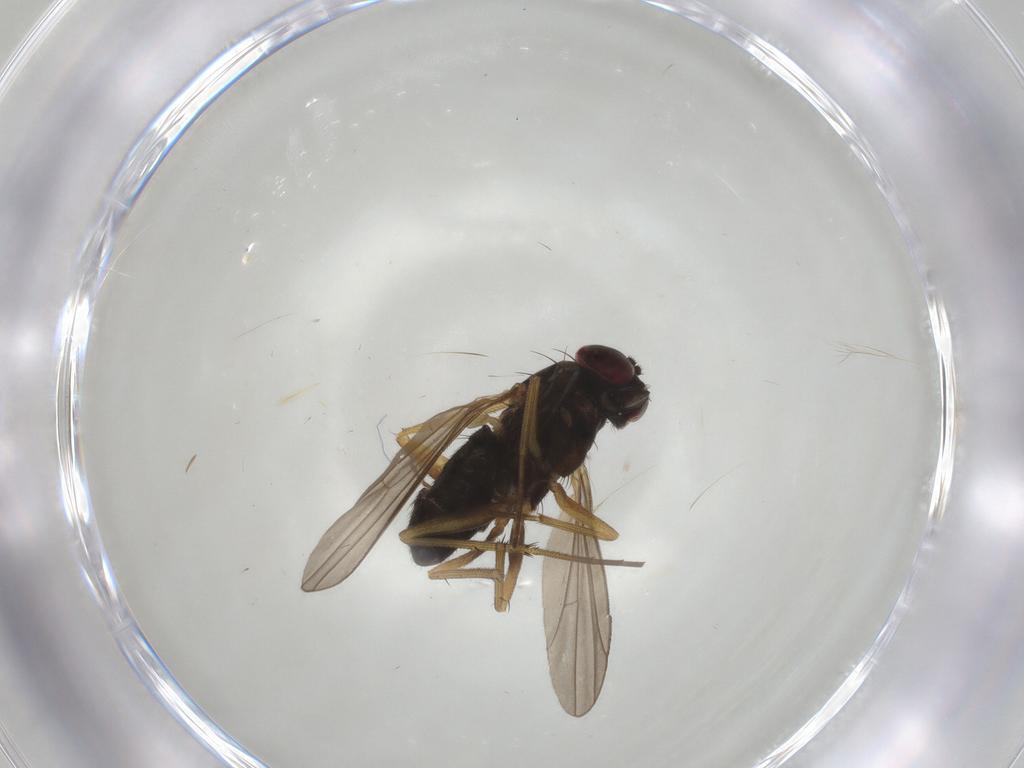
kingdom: Animalia
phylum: Arthropoda
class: Insecta
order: Diptera
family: Dolichopodidae
